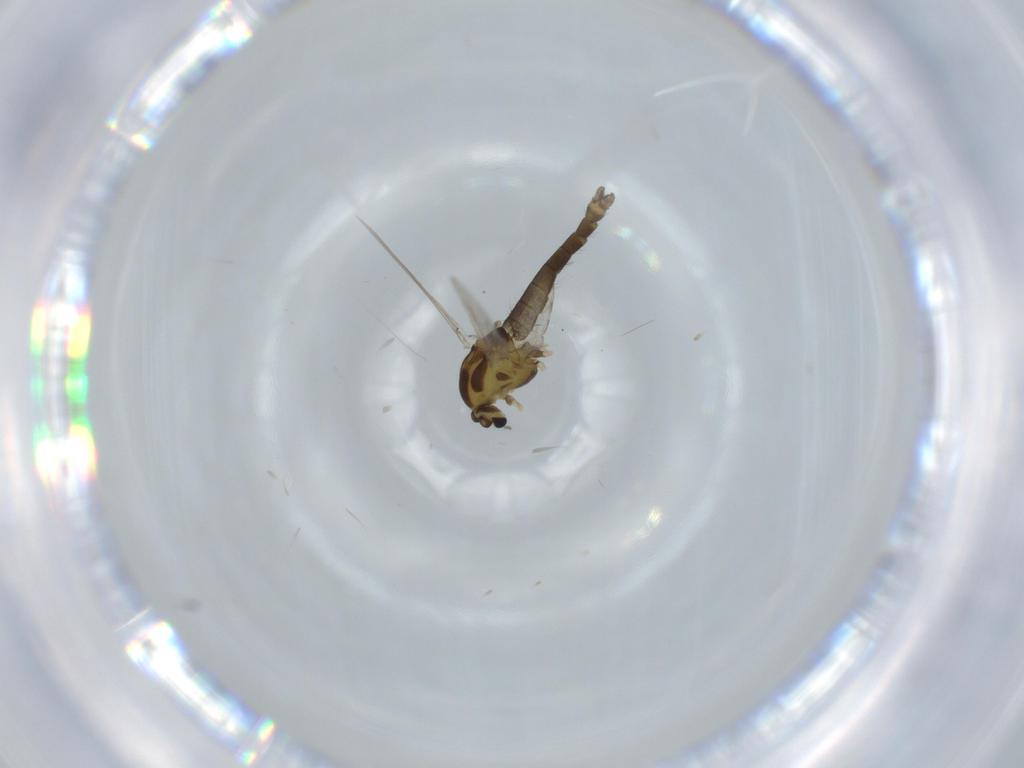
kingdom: Animalia
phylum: Arthropoda
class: Insecta
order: Diptera
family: Chironomidae
